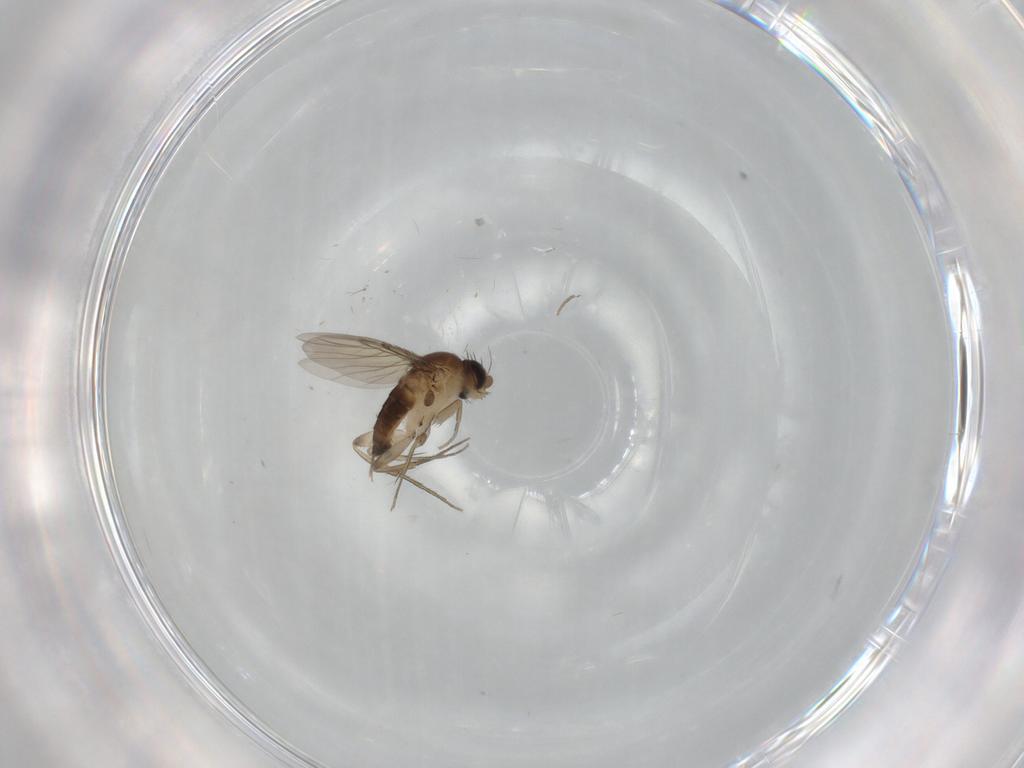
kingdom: Animalia
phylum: Arthropoda
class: Insecta
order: Diptera
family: Phoridae
